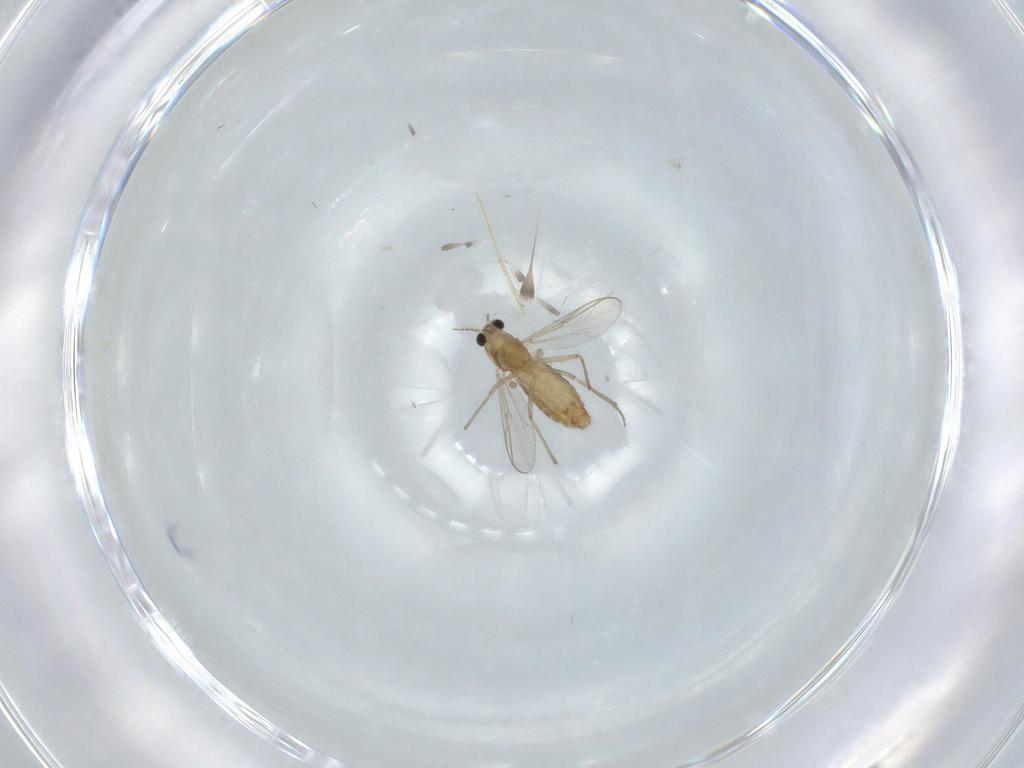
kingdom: Animalia
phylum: Arthropoda
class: Insecta
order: Diptera
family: Chironomidae
